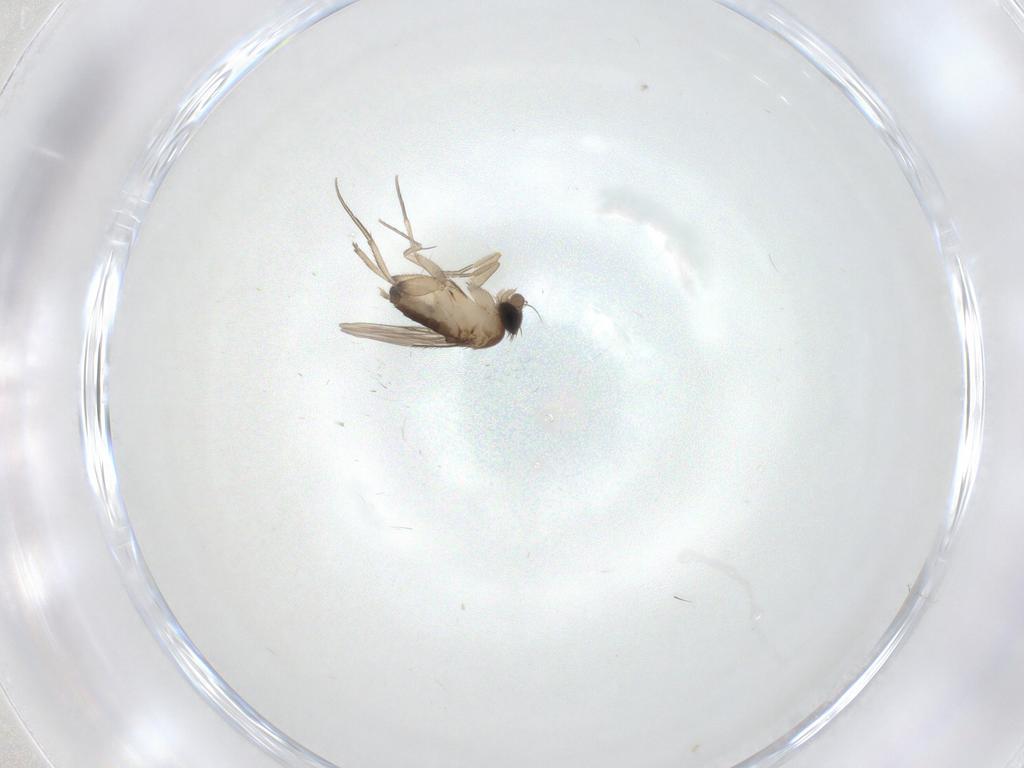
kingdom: Animalia
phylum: Arthropoda
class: Insecta
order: Diptera
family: Phoridae
